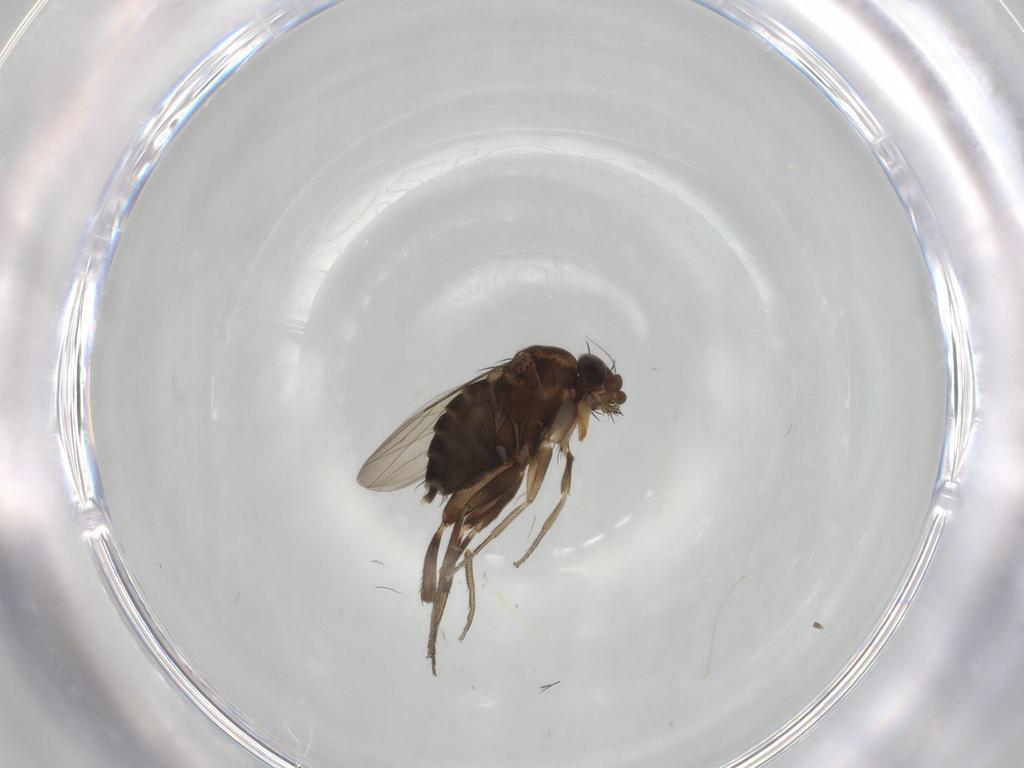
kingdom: Animalia
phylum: Arthropoda
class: Insecta
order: Diptera
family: Phoridae
